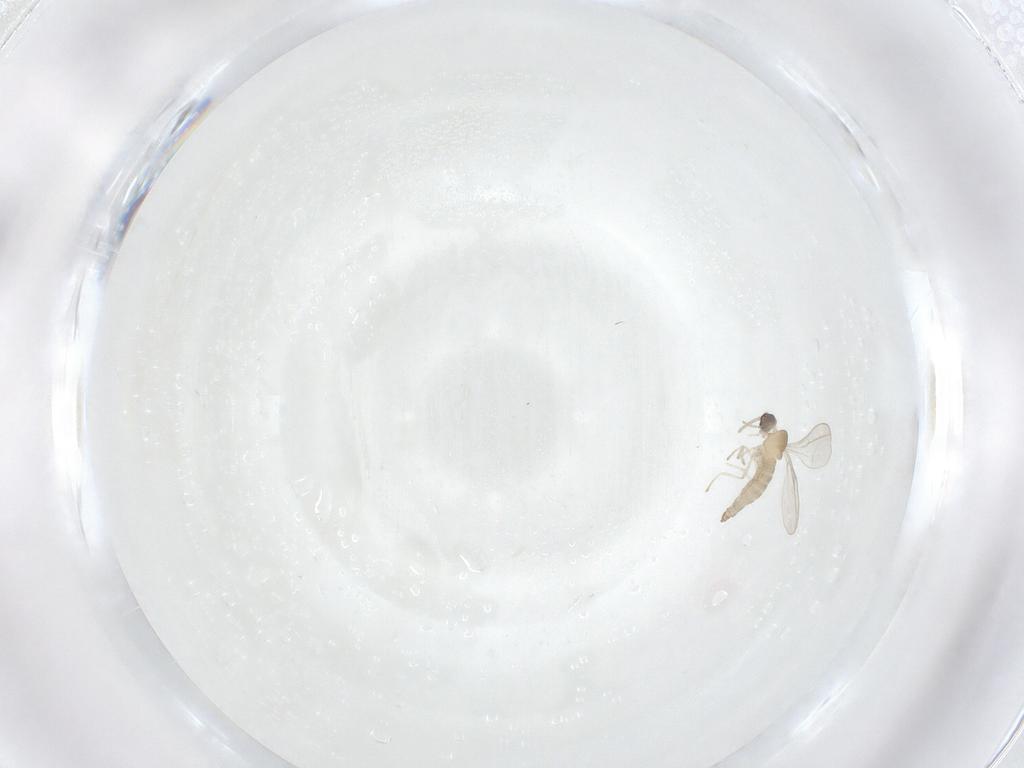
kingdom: Animalia
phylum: Arthropoda
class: Insecta
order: Diptera
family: Cecidomyiidae
